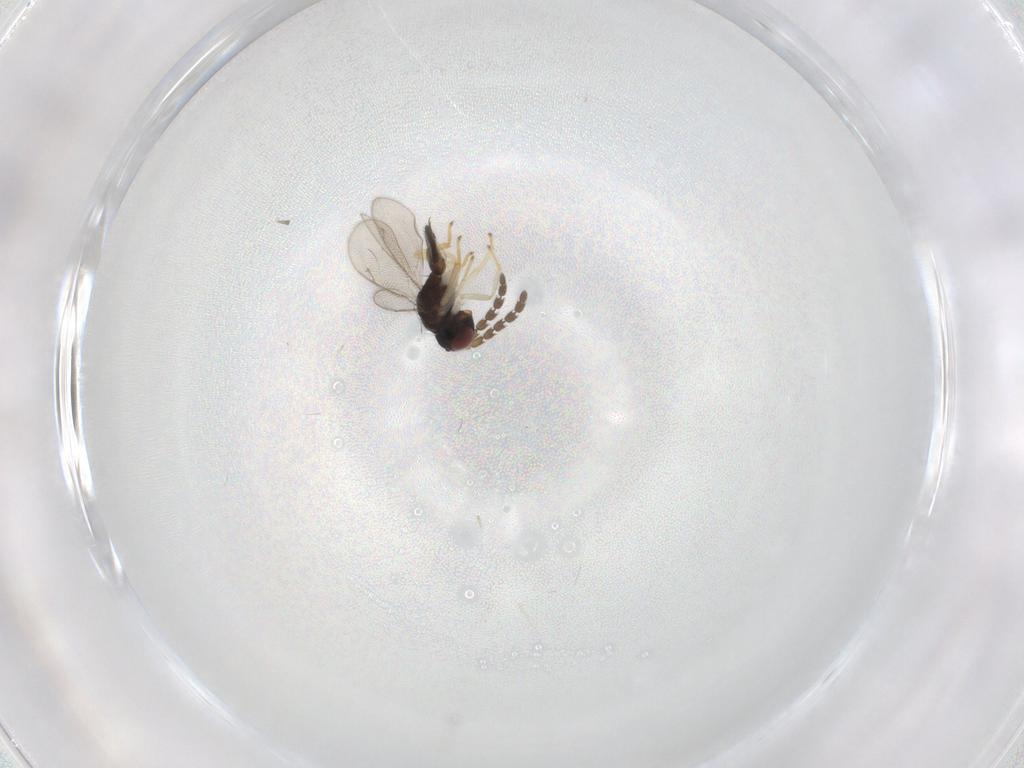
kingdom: Animalia
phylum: Arthropoda
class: Insecta
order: Hymenoptera
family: Eulophidae
